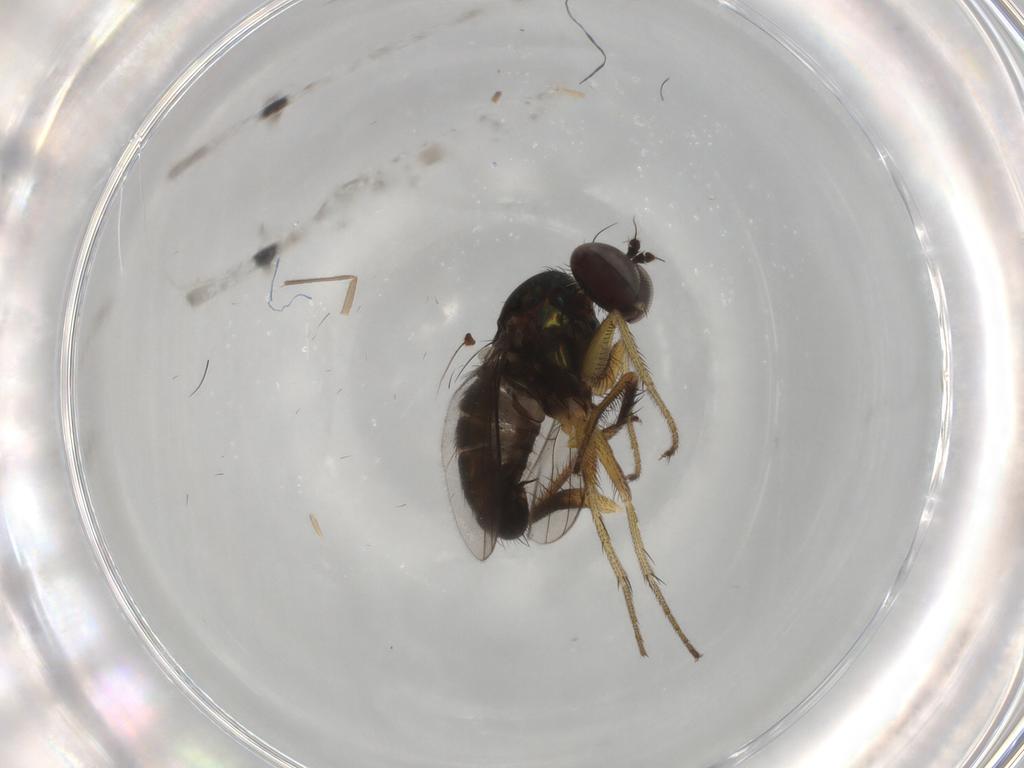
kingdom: Animalia
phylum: Arthropoda
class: Insecta
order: Diptera
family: Dolichopodidae
